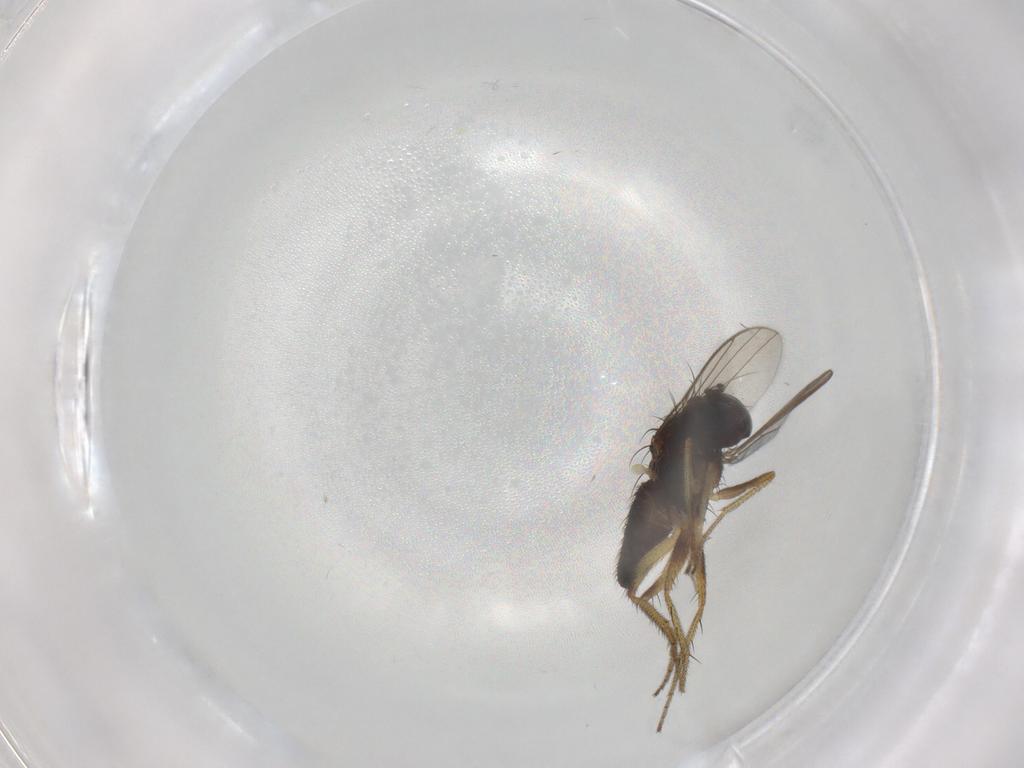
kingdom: Animalia
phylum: Arthropoda
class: Insecta
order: Diptera
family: Dolichopodidae
